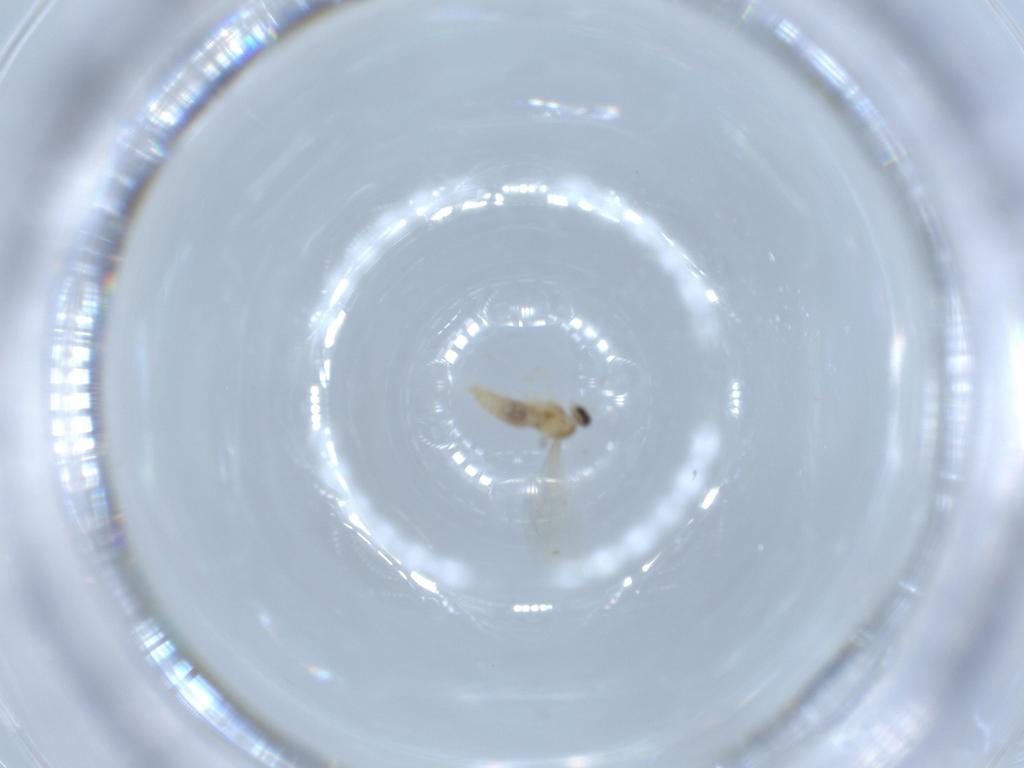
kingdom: Animalia
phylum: Arthropoda
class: Insecta
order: Diptera
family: Cecidomyiidae
